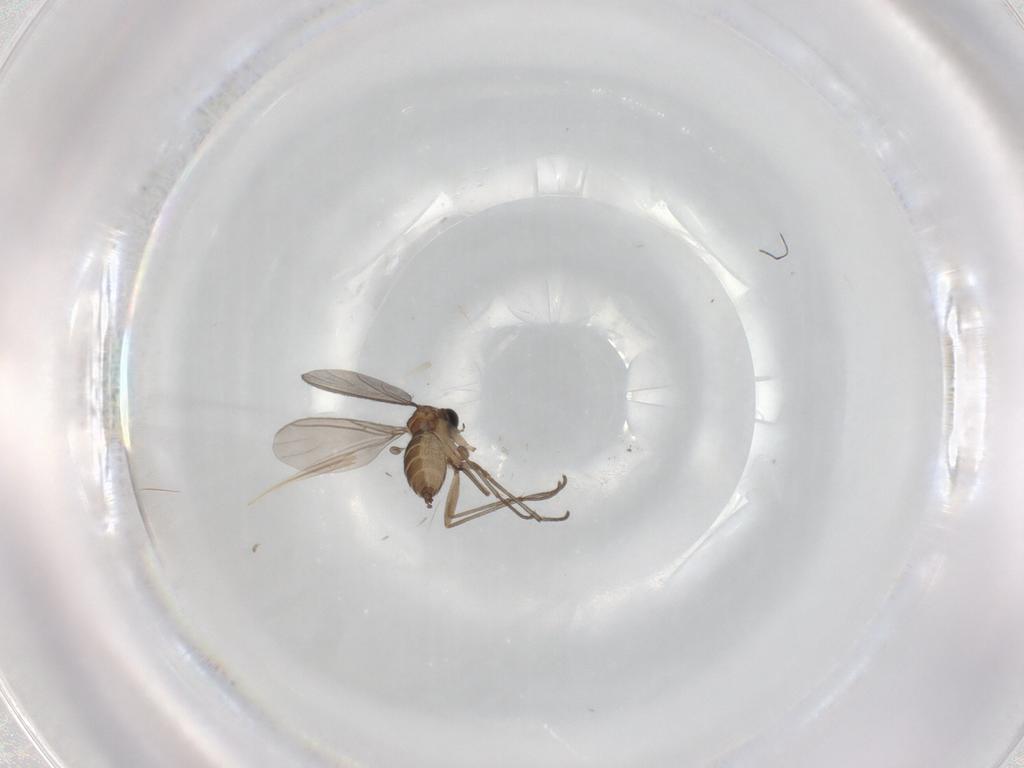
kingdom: Animalia
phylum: Arthropoda
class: Insecta
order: Diptera
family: Sciaridae
